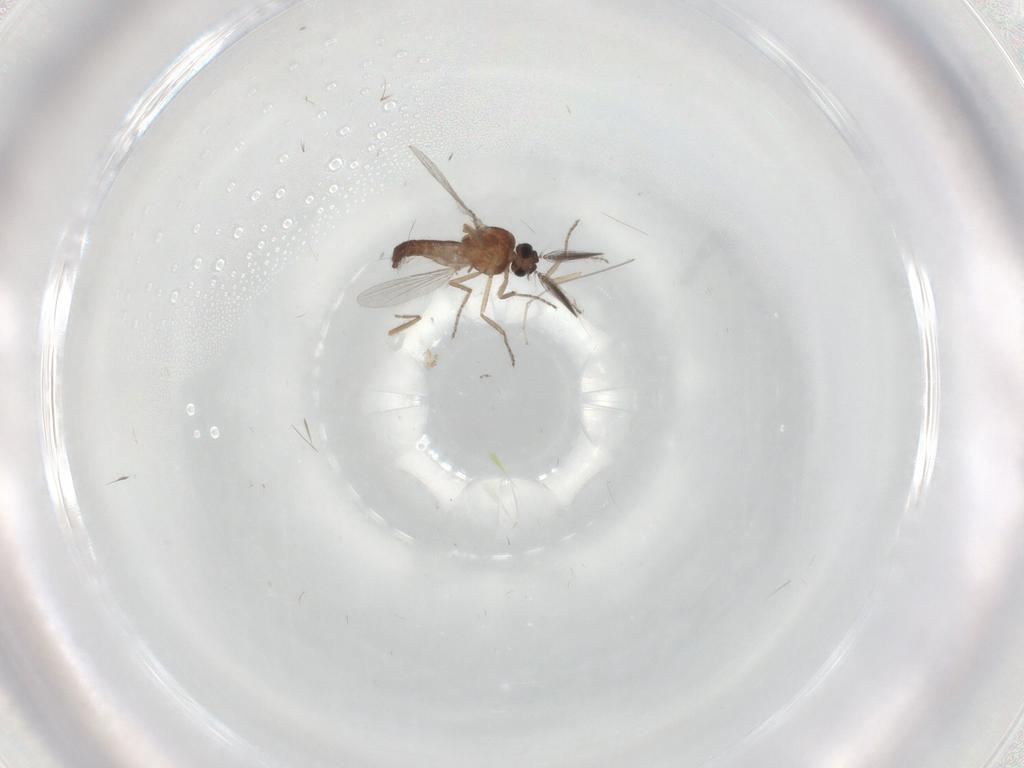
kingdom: Animalia
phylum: Arthropoda
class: Insecta
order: Diptera
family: Ceratopogonidae
